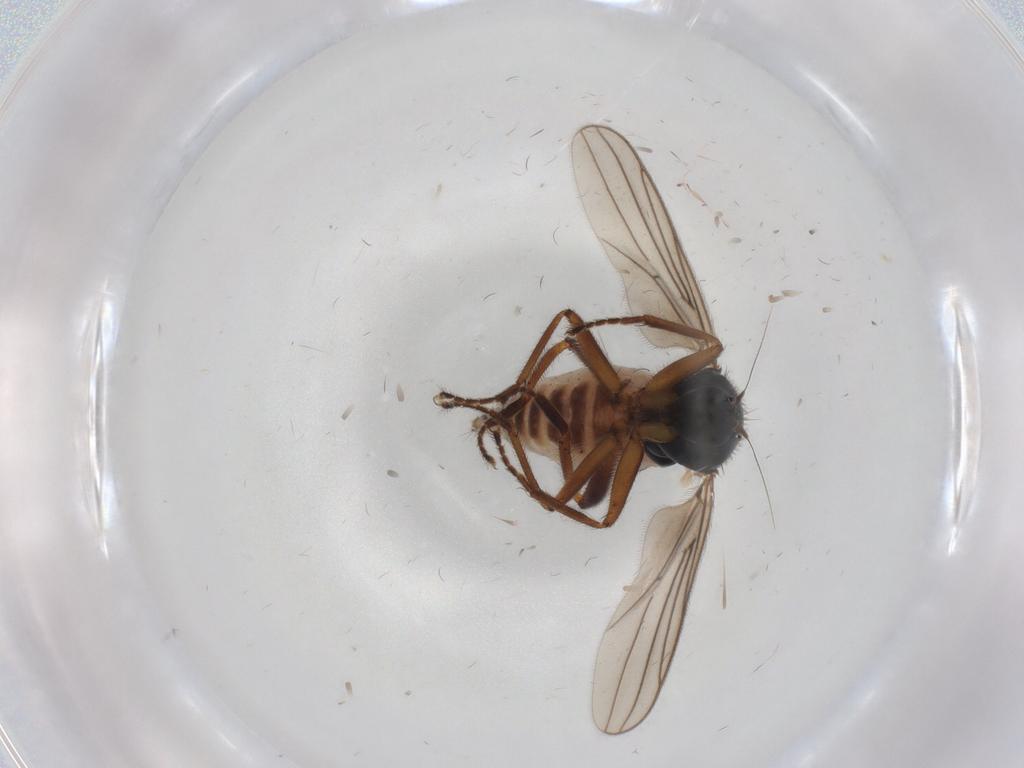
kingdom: Animalia
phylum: Arthropoda
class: Insecta
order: Diptera
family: Hybotidae
